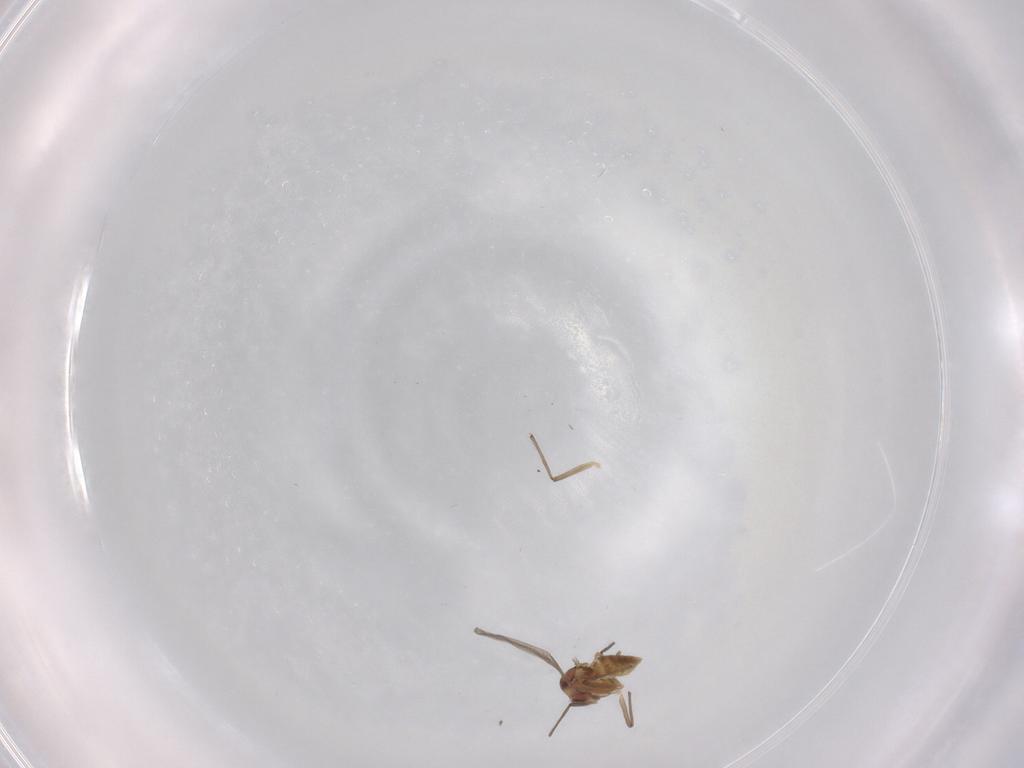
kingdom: Animalia
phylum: Arthropoda
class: Insecta
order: Diptera
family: Chironomidae
